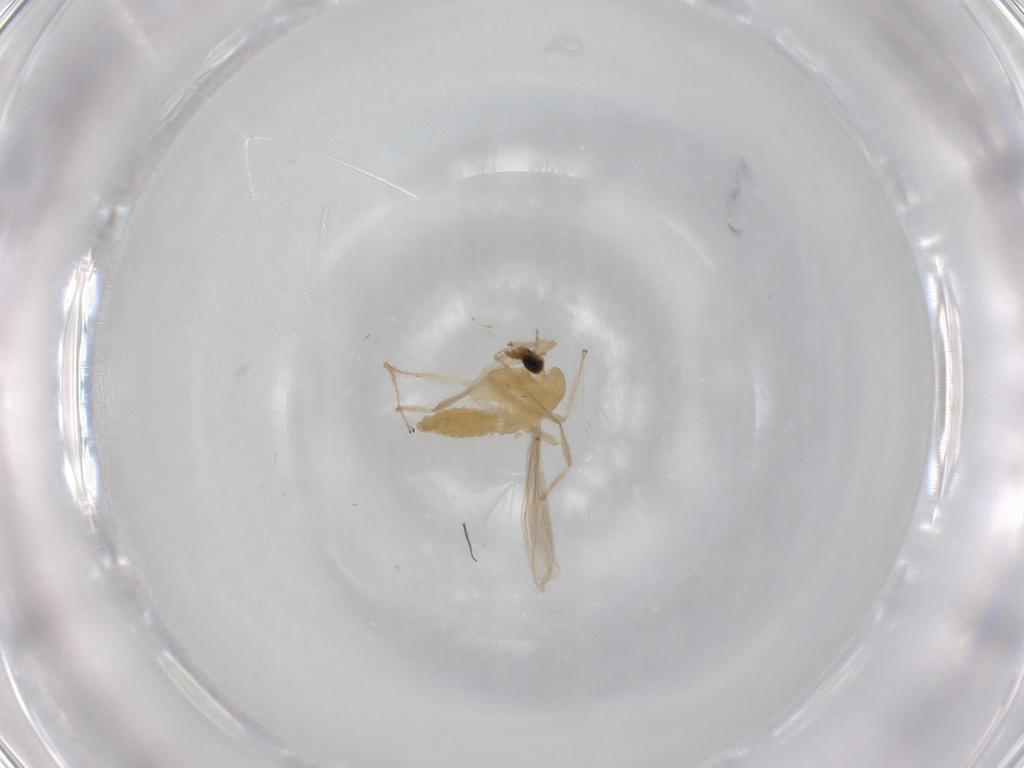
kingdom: Animalia
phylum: Arthropoda
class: Insecta
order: Diptera
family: Chironomidae
